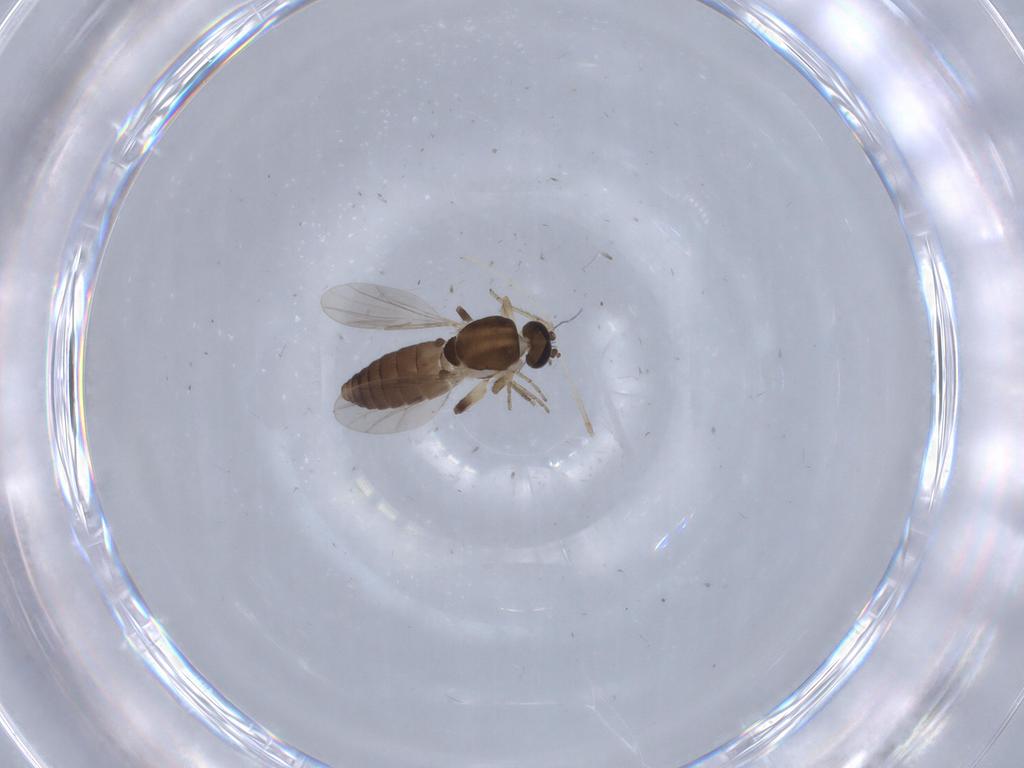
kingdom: Animalia
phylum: Arthropoda
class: Insecta
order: Diptera
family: Ceratopogonidae
